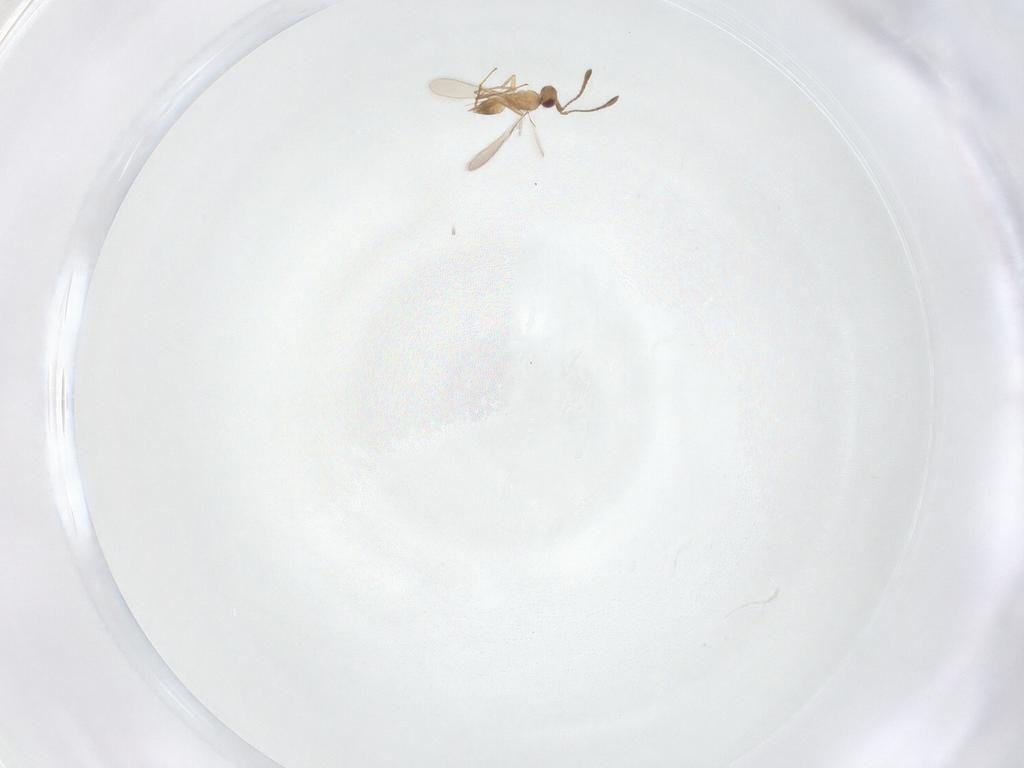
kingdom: Animalia
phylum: Arthropoda
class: Insecta
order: Hymenoptera
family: Mymaridae
